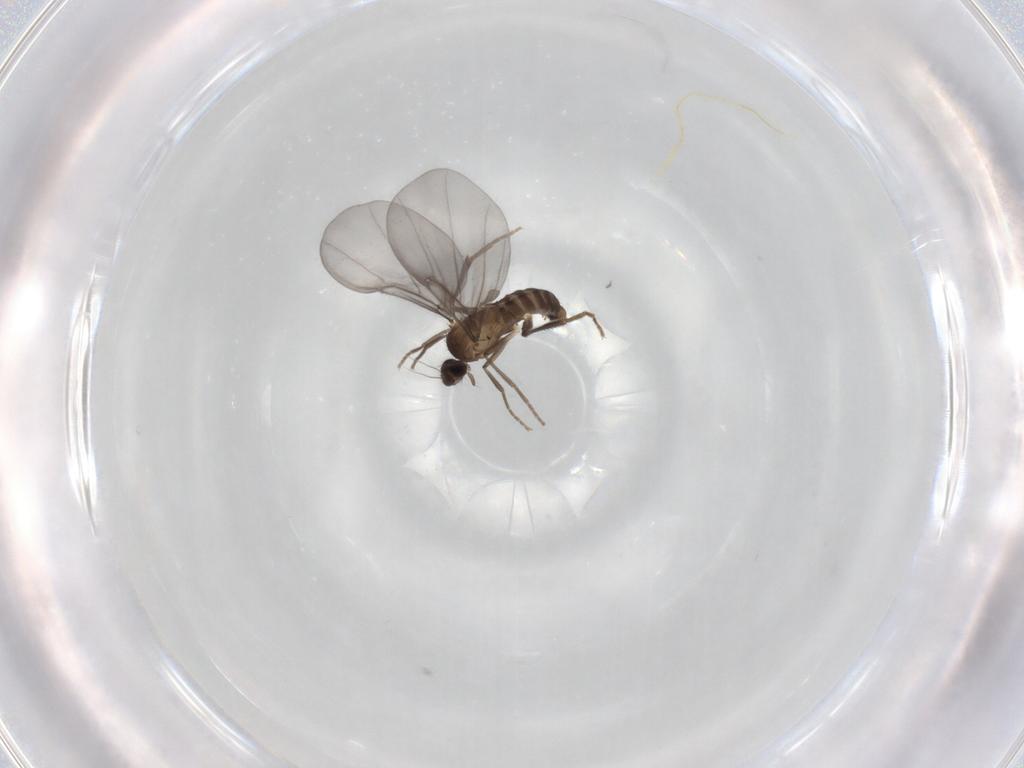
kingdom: Animalia
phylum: Arthropoda
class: Insecta
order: Diptera
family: Phoridae
